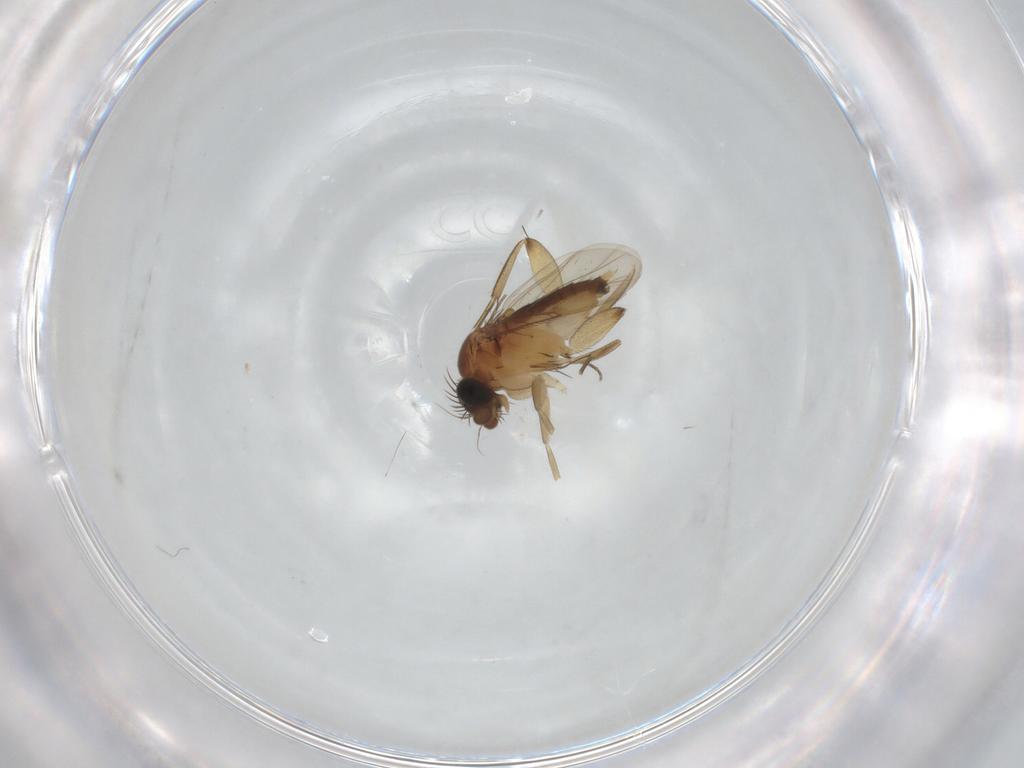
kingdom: Animalia
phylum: Arthropoda
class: Insecta
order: Diptera
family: Phoridae
